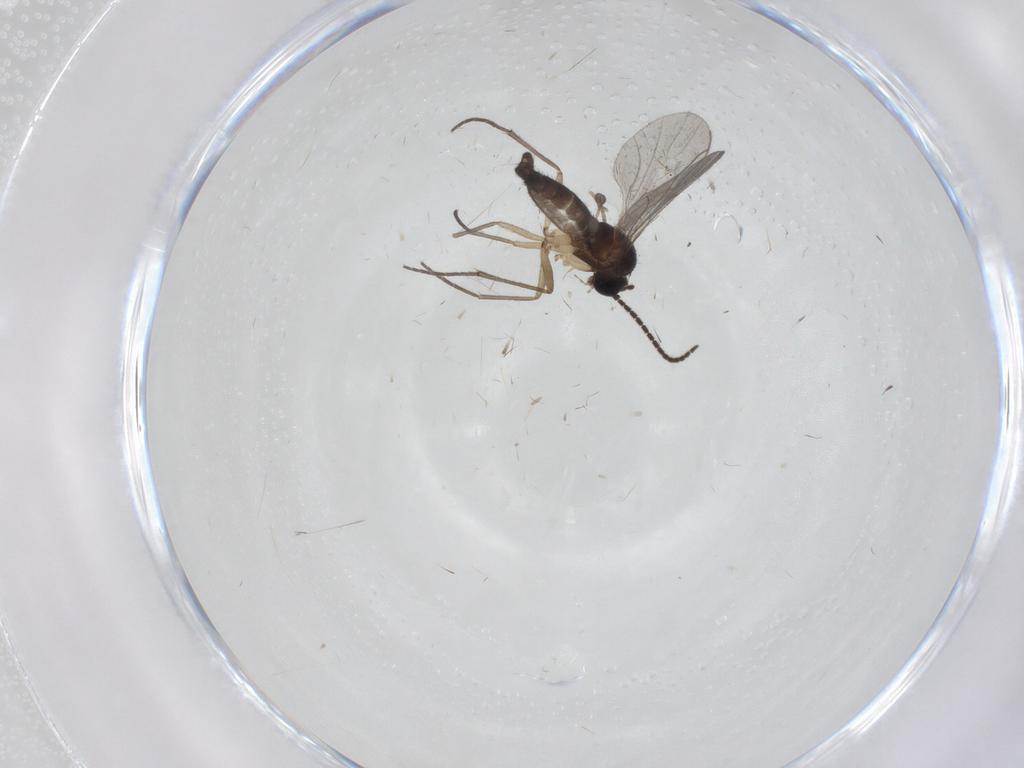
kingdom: Animalia
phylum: Arthropoda
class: Insecta
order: Diptera
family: Sciaridae
